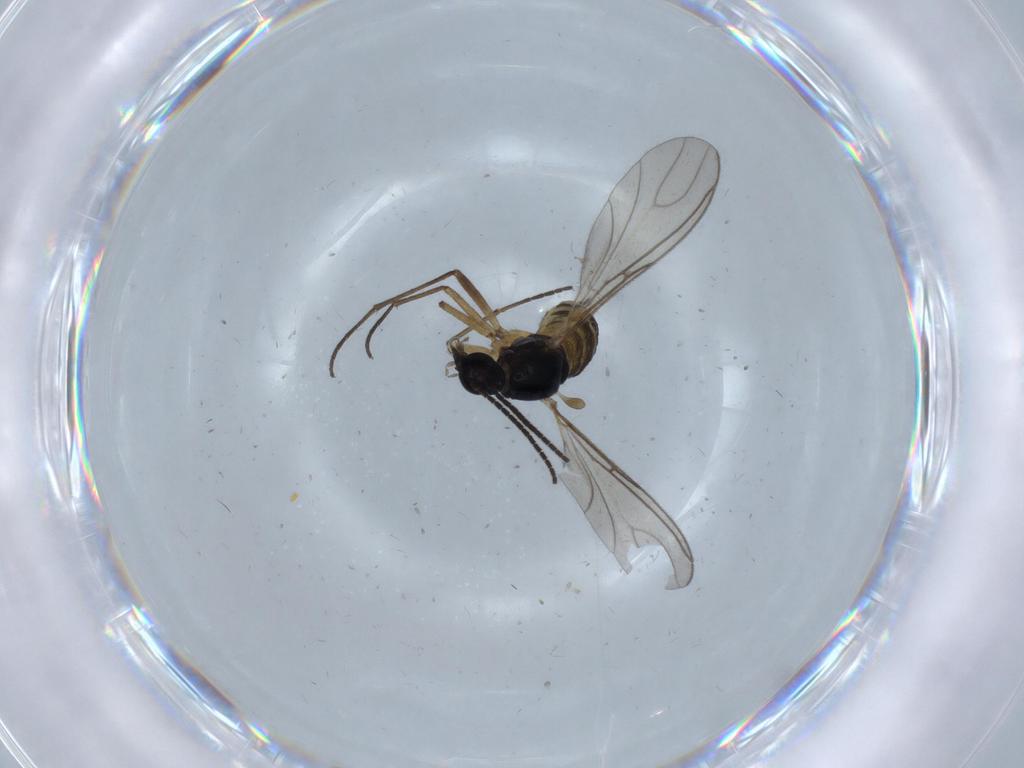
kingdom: Animalia
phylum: Arthropoda
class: Insecta
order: Diptera
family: Sciaridae
